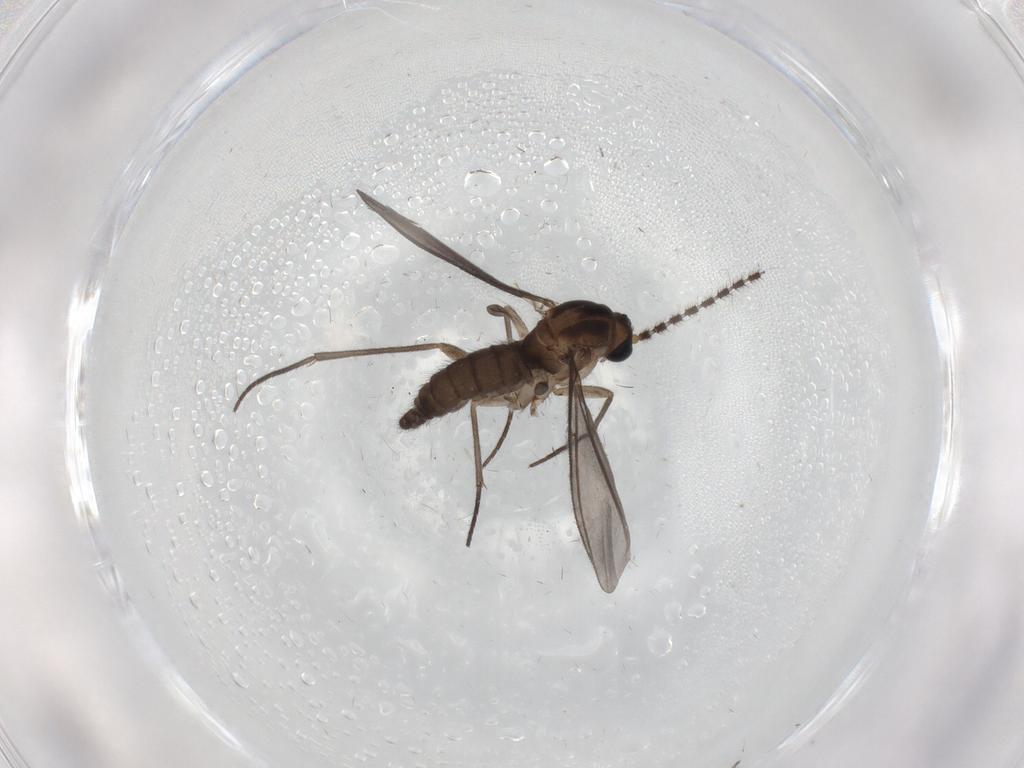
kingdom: Animalia
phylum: Arthropoda
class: Insecta
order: Diptera
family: Sciaridae
